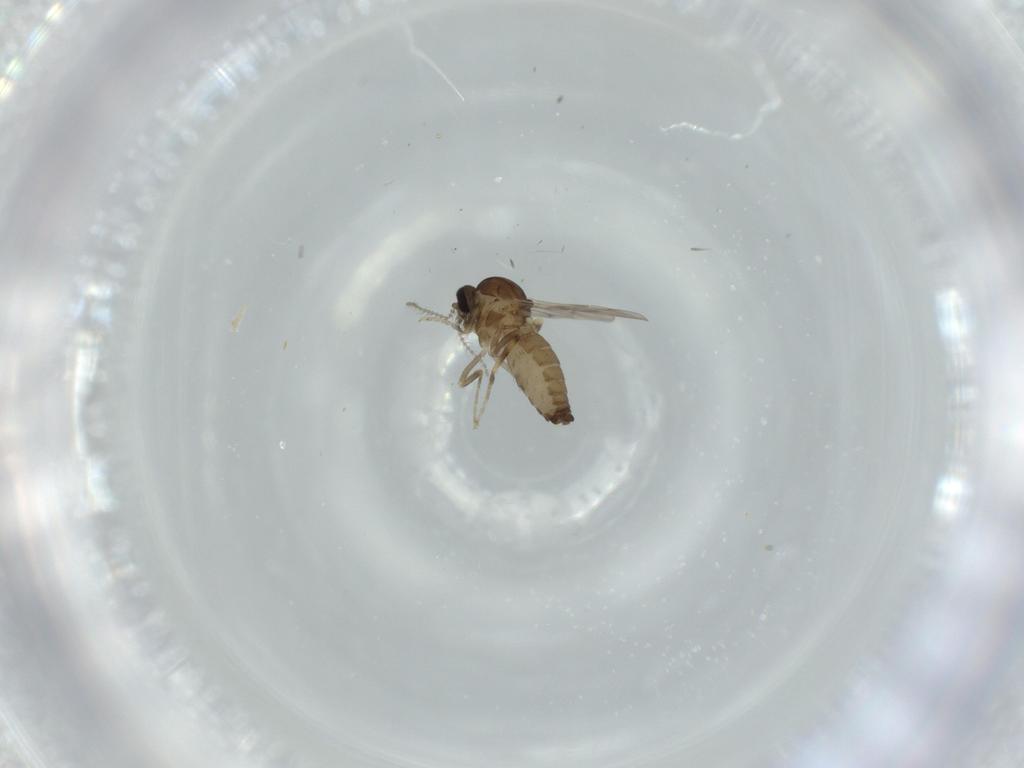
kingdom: Animalia
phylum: Arthropoda
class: Insecta
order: Diptera
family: Ceratopogonidae
